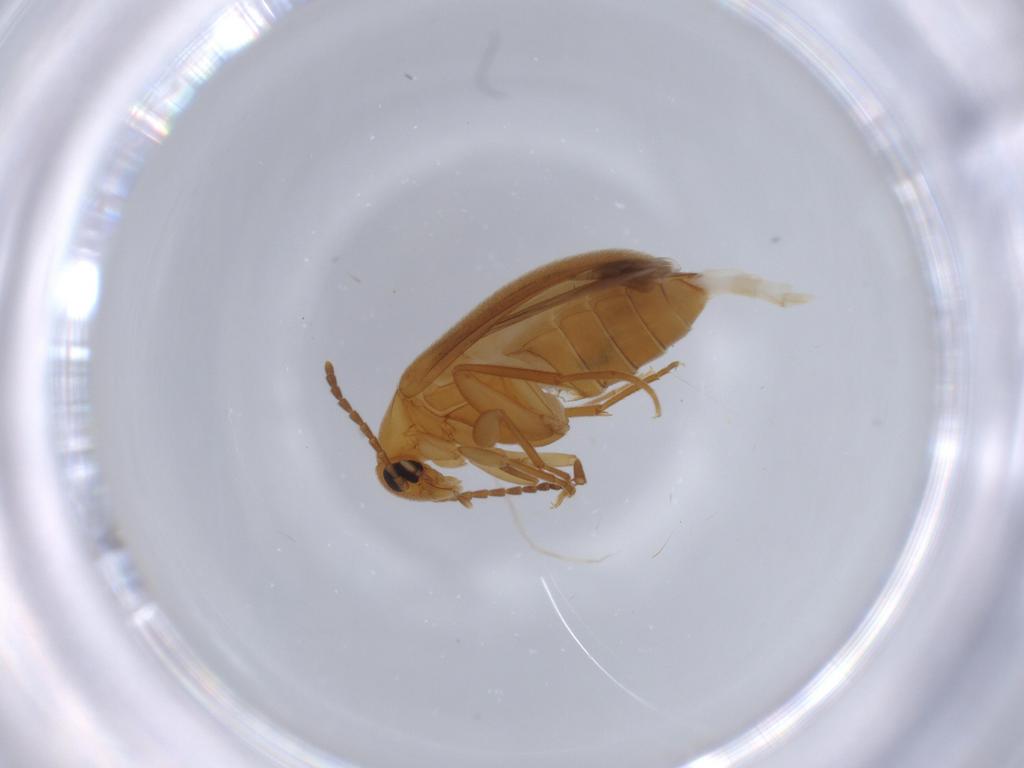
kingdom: Animalia
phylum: Arthropoda
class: Insecta
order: Coleoptera
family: Scraptiidae
